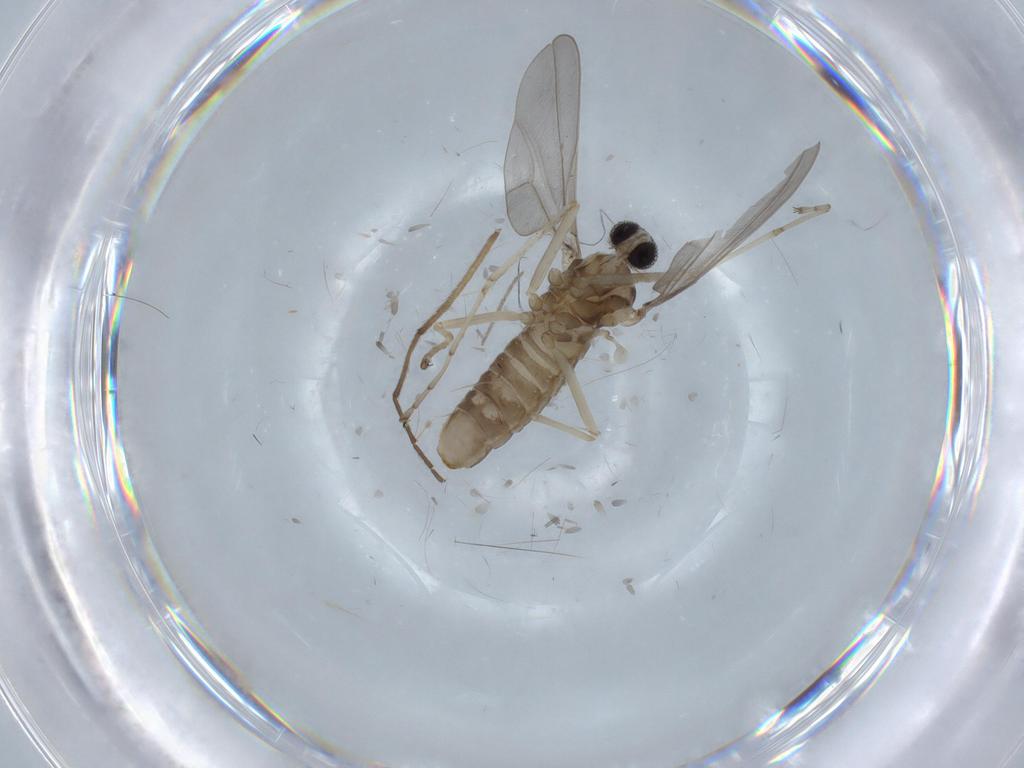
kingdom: Animalia
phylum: Arthropoda
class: Insecta
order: Diptera
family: Chironomidae
